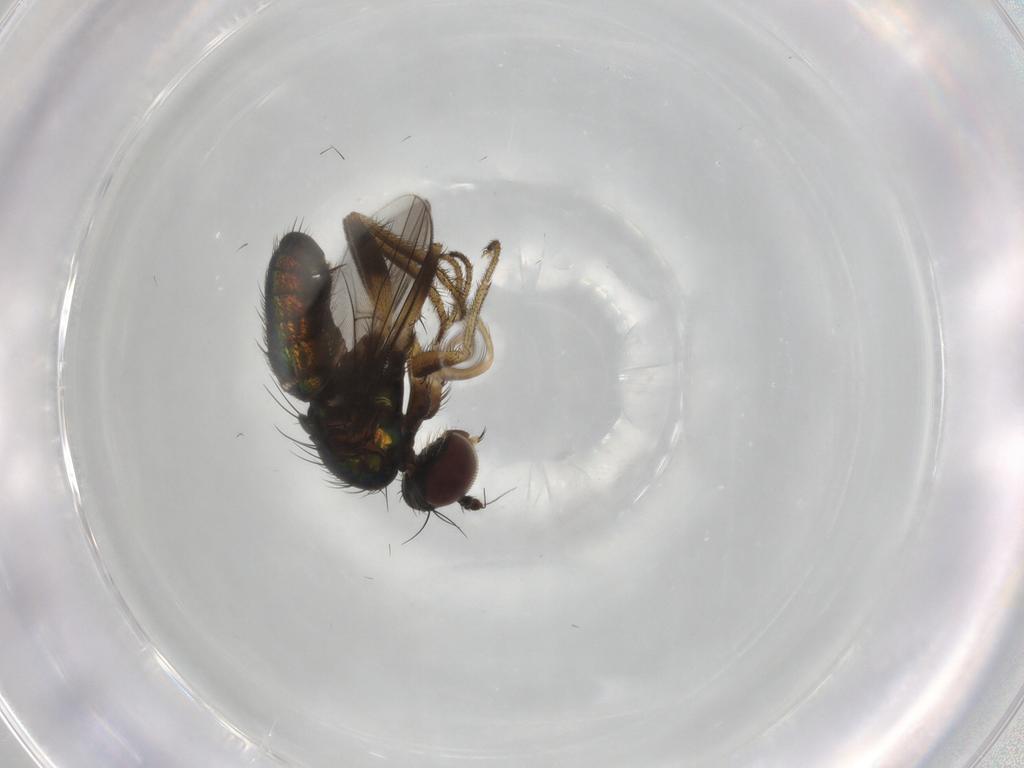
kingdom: Animalia
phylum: Arthropoda
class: Insecta
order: Diptera
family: Dolichopodidae
